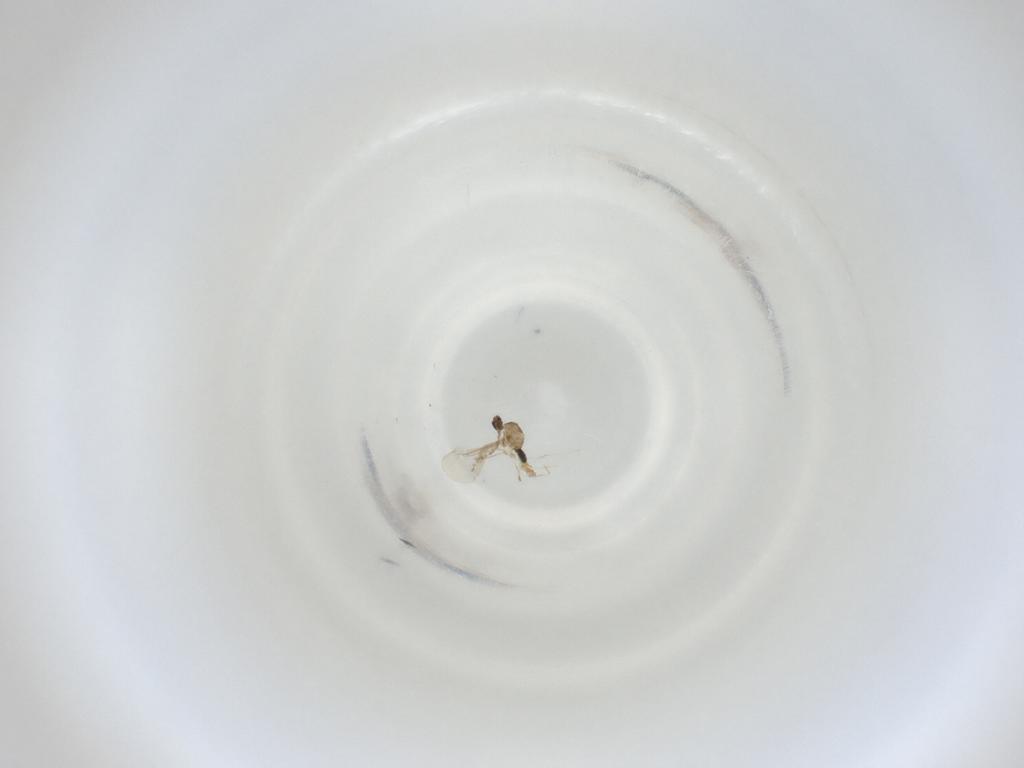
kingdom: Animalia
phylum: Arthropoda
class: Insecta
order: Diptera
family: Cecidomyiidae
